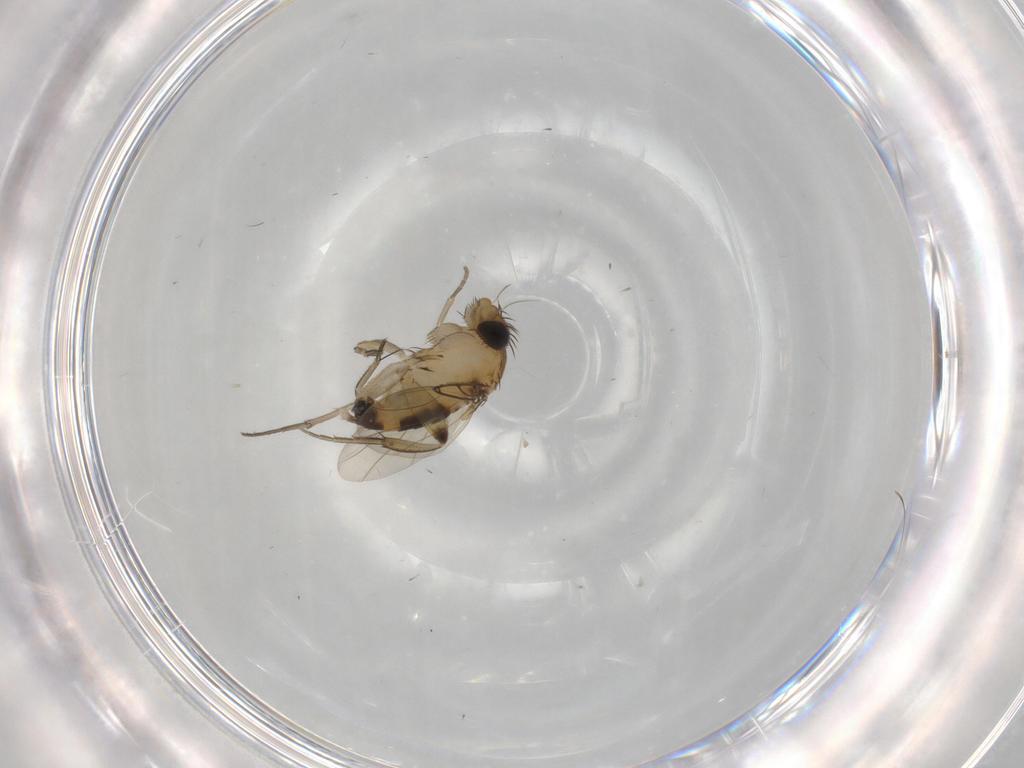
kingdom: Animalia
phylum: Arthropoda
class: Insecta
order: Diptera
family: Phoridae
